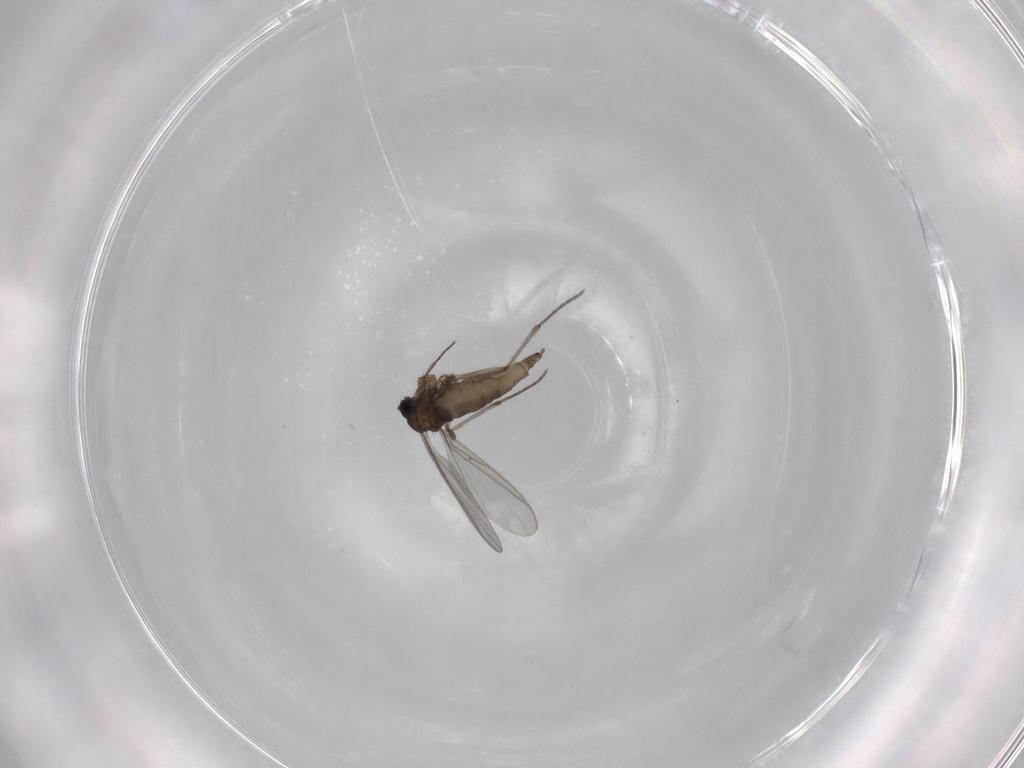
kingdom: Animalia
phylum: Arthropoda
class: Insecta
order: Diptera
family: Sciaridae
